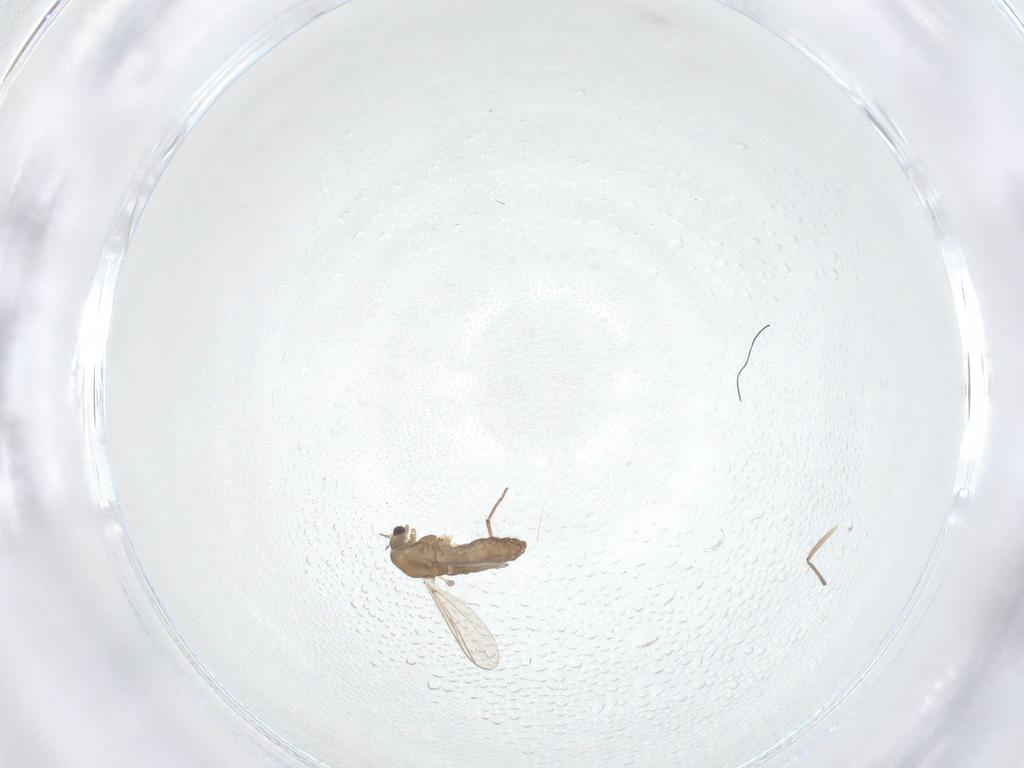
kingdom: Animalia
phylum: Arthropoda
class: Insecta
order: Diptera
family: Chironomidae
